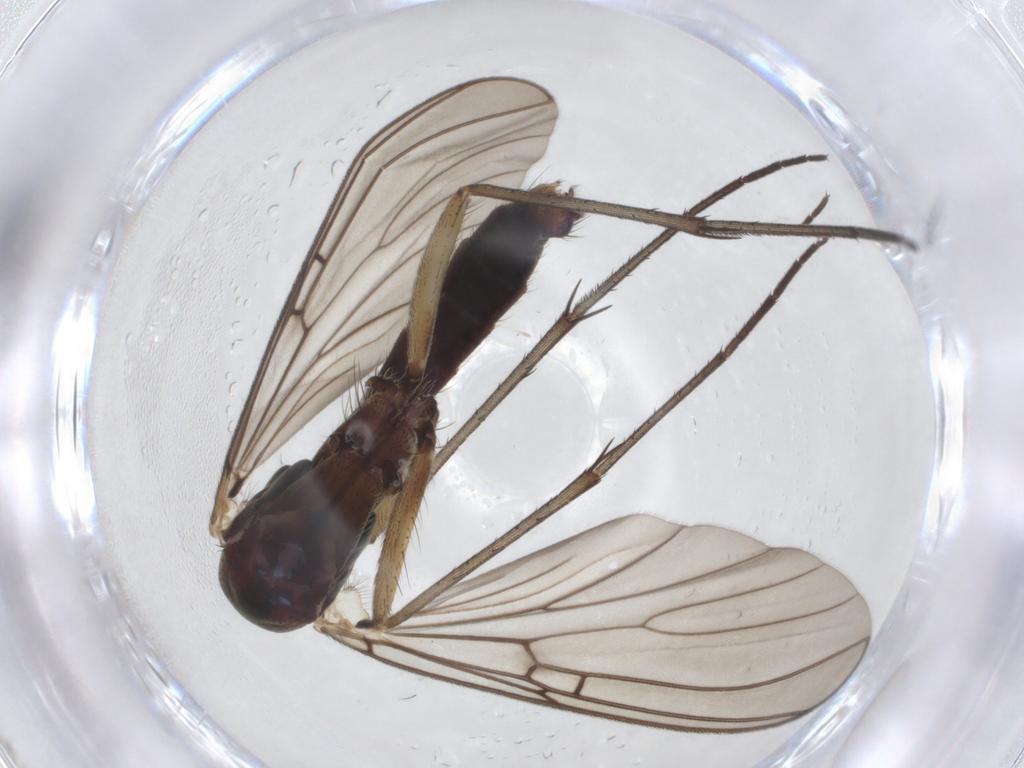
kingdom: Animalia
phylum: Arthropoda
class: Insecta
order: Diptera
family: Mycetophilidae
